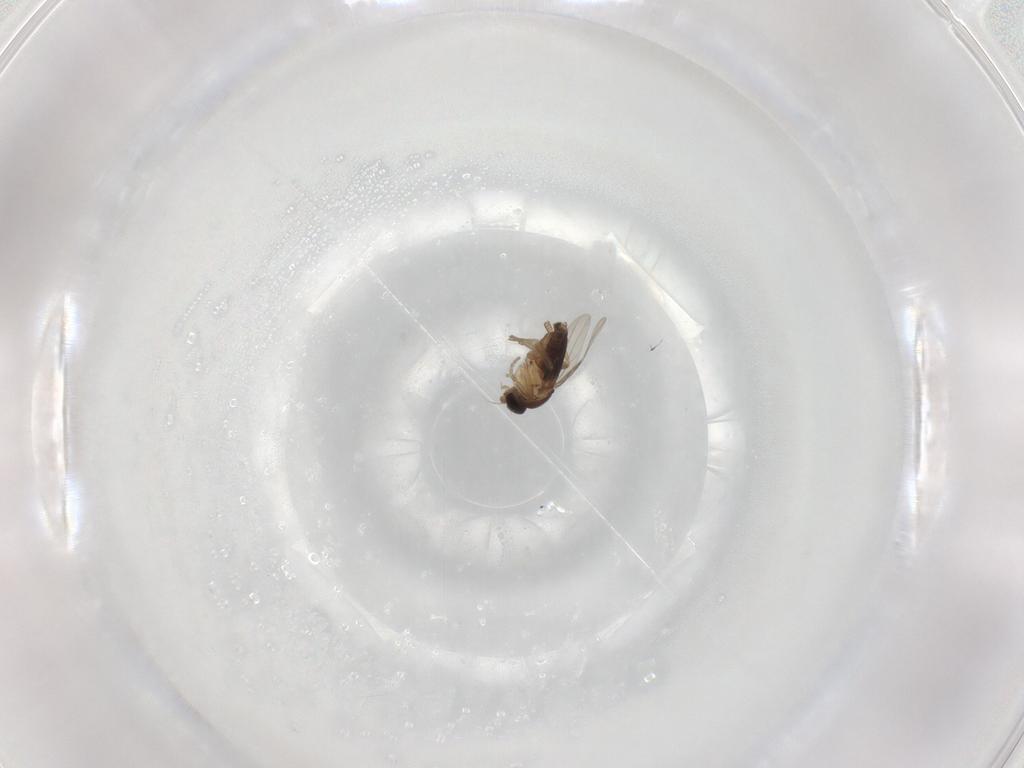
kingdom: Animalia
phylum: Arthropoda
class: Insecta
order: Diptera
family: Phoridae
